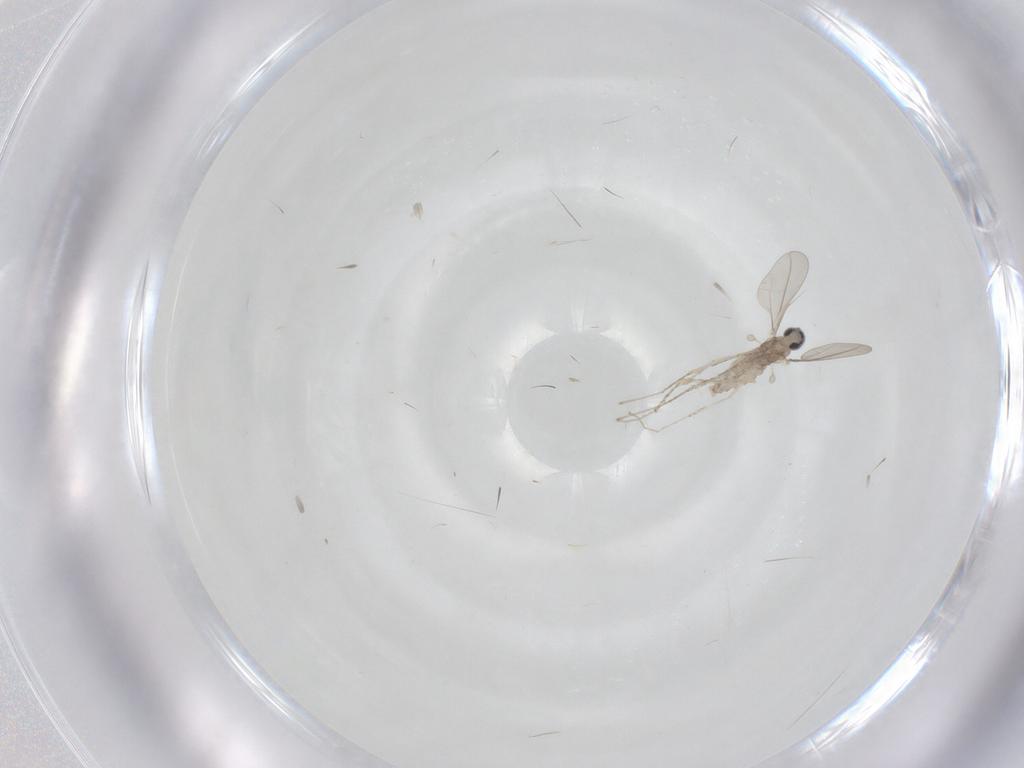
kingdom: Animalia
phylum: Arthropoda
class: Insecta
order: Diptera
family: Cecidomyiidae
